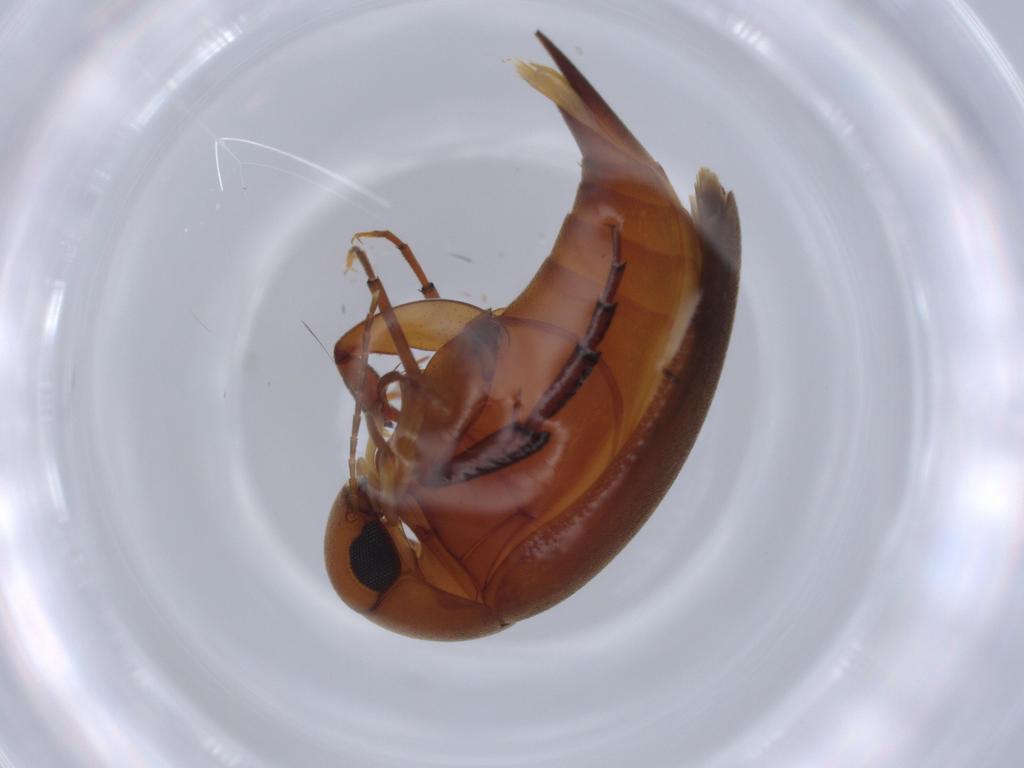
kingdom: Animalia
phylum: Arthropoda
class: Insecta
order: Coleoptera
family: Mordellidae
